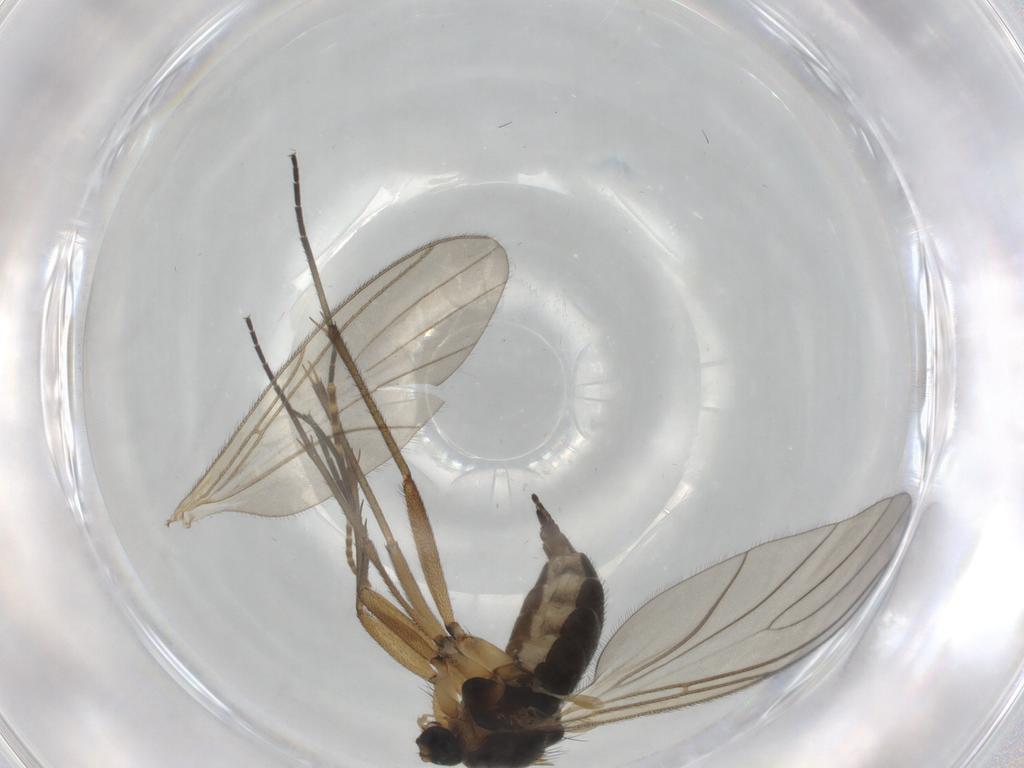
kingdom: Animalia
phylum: Arthropoda
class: Insecta
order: Diptera
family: Sciaridae
